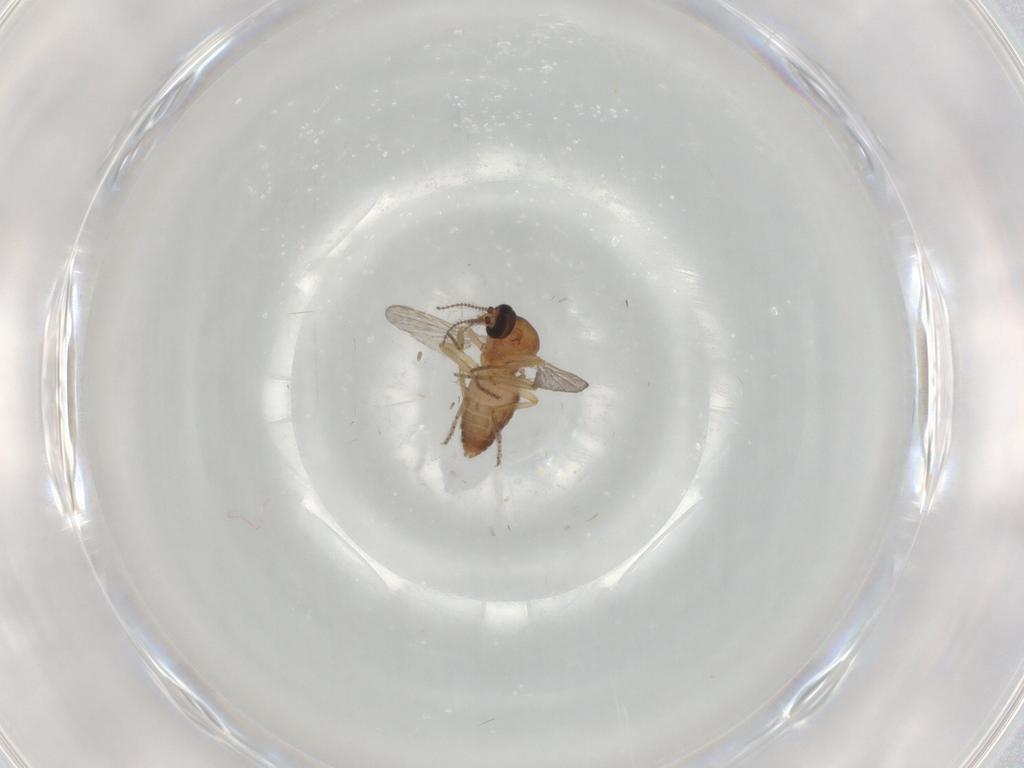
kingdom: Animalia
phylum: Arthropoda
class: Insecta
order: Diptera
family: Ceratopogonidae
